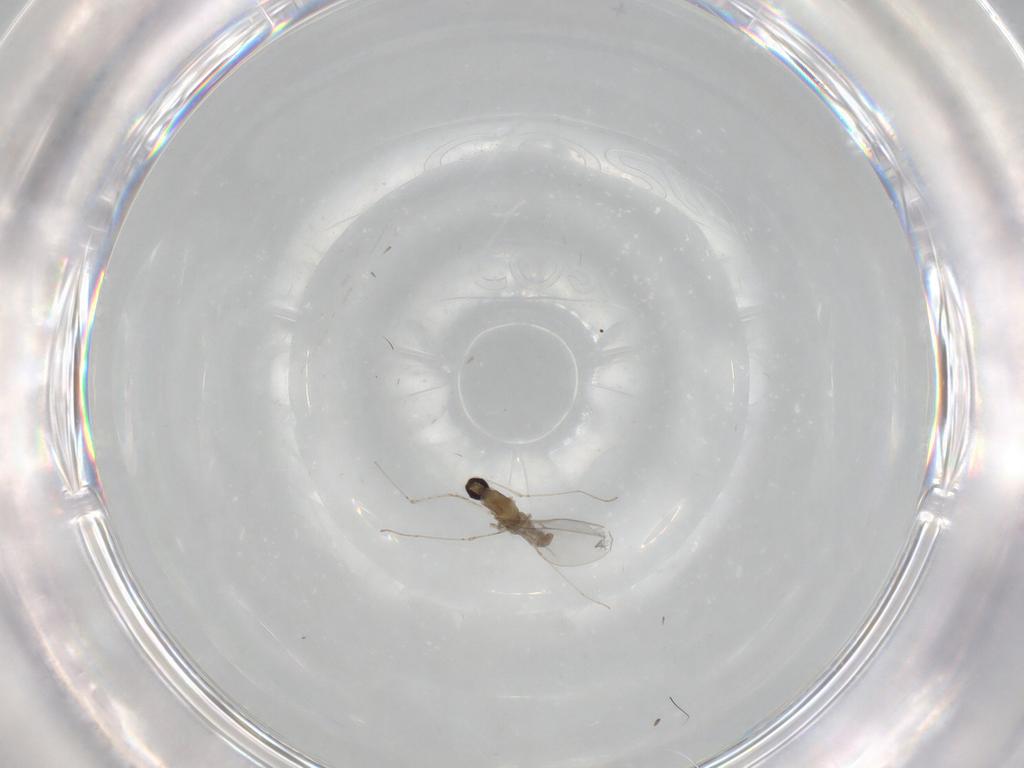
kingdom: Animalia
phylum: Arthropoda
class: Insecta
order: Diptera
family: Cecidomyiidae
